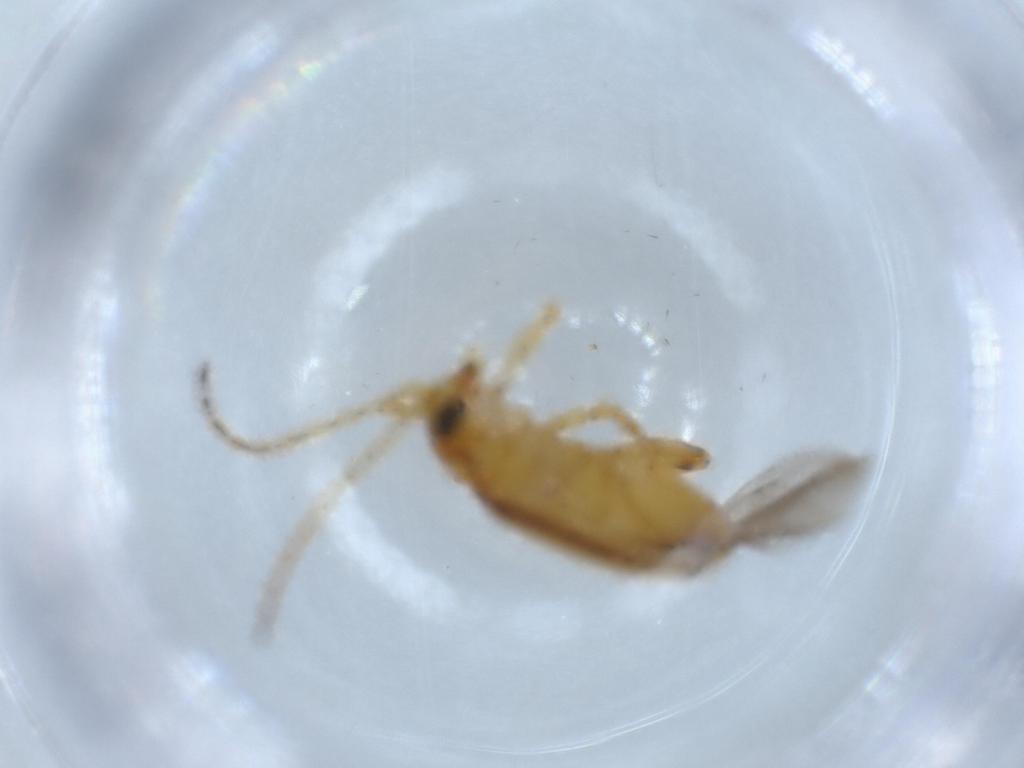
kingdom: Animalia
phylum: Arthropoda
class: Insecta
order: Coleoptera
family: Chrysomelidae
